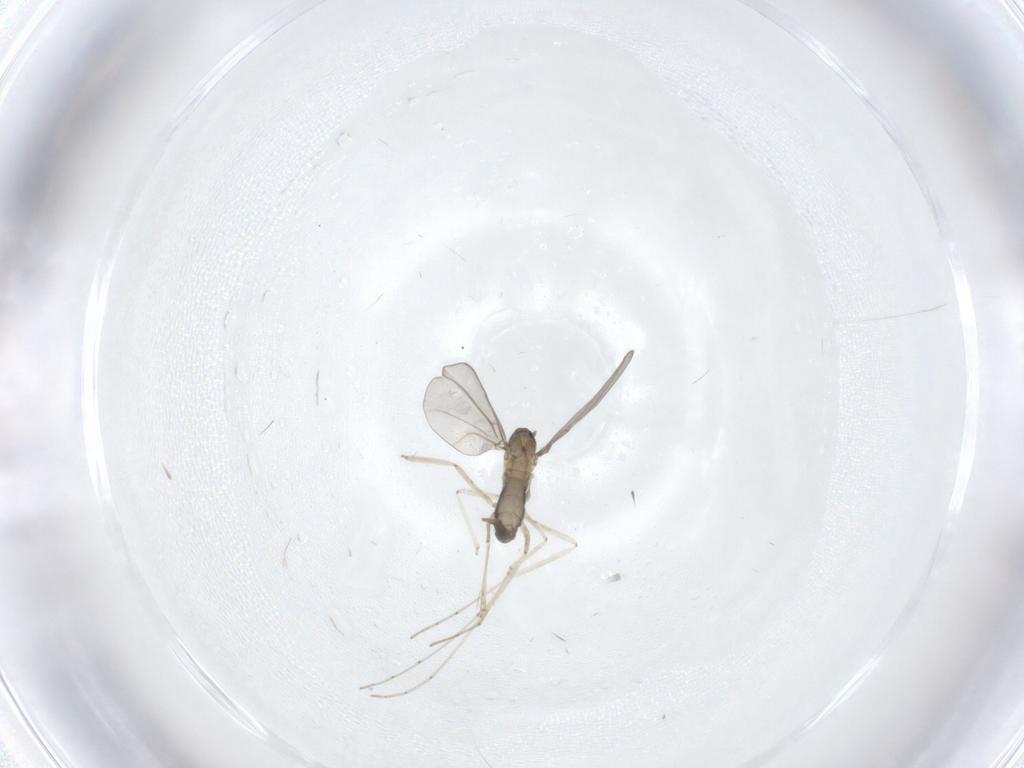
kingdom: Animalia
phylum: Arthropoda
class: Insecta
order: Diptera
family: Cecidomyiidae
